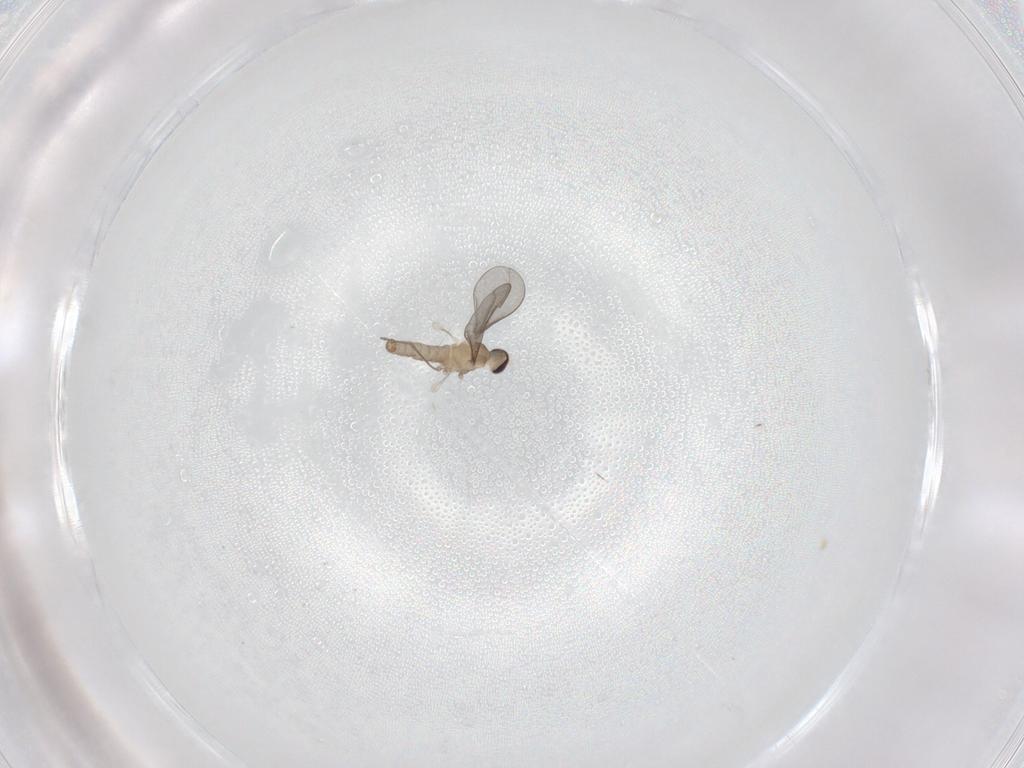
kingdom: Animalia
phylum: Arthropoda
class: Insecta
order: Diptera
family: Cecidomyiidae
